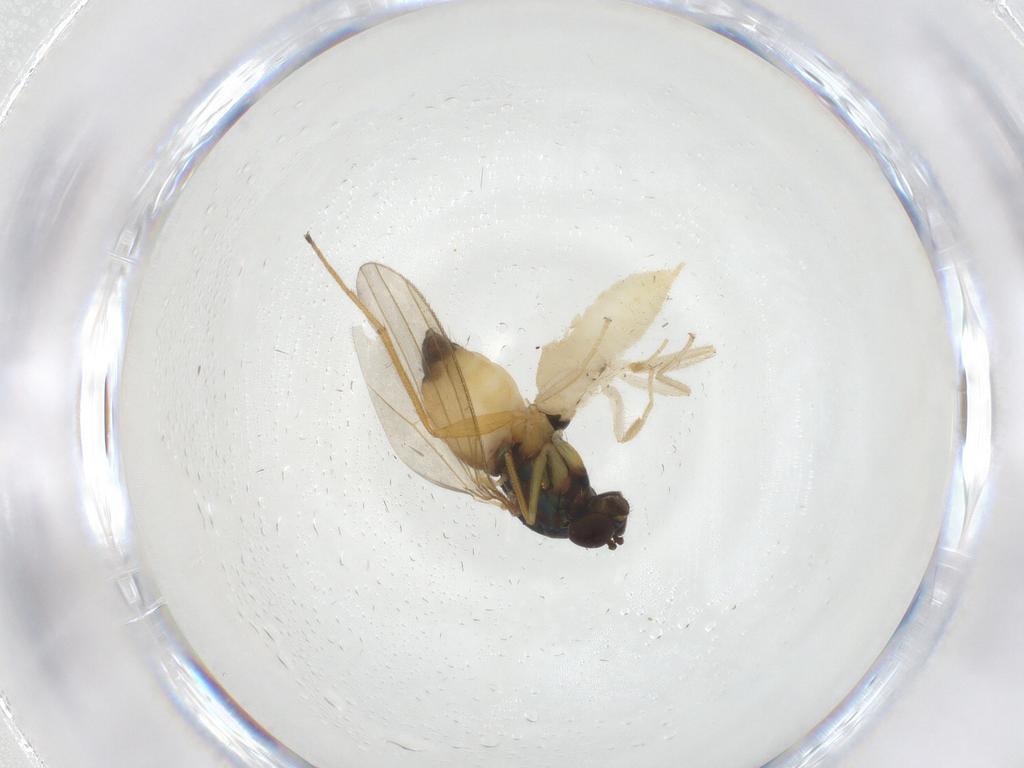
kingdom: Animalia
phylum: Arthropoda
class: Insecta
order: Diptera
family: Hybotidae
